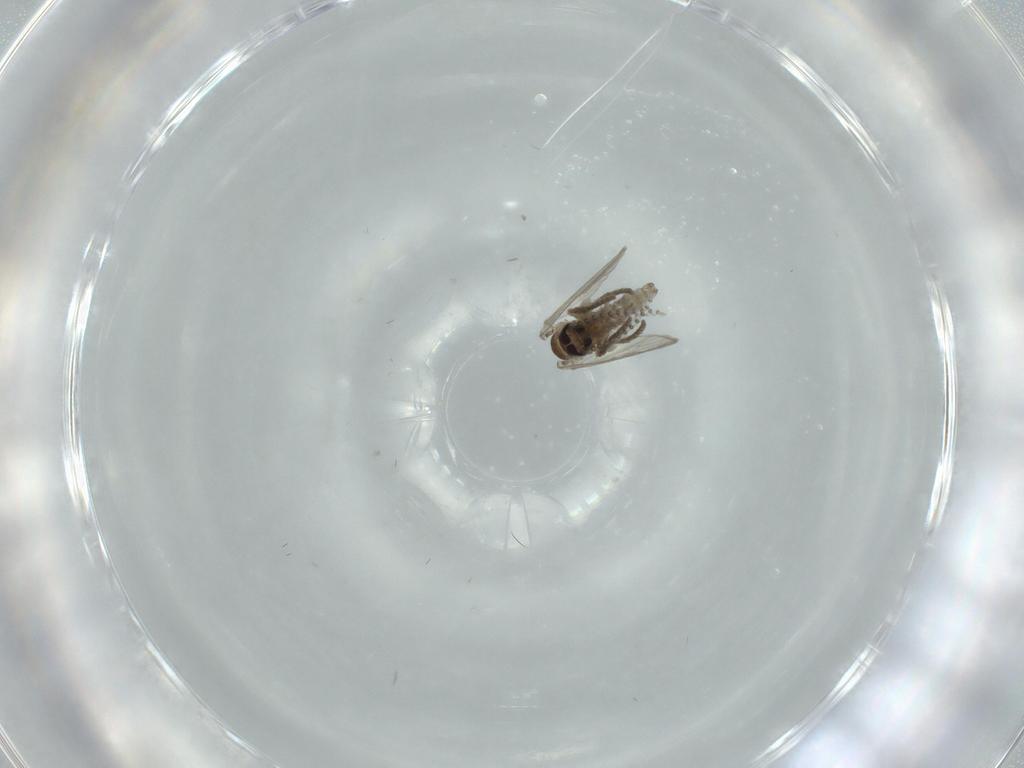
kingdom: Animalia
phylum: Arthropoda
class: Insecta
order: Diptera
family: Psychodidae
